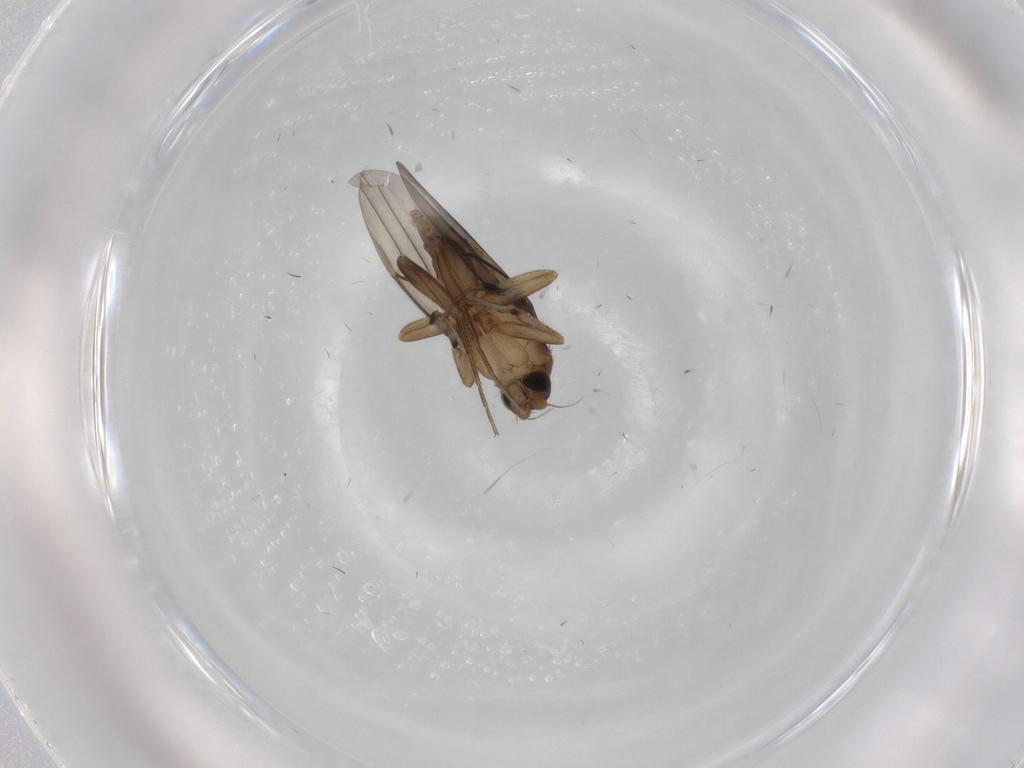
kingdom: Animalia
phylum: Arthropoda
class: Insecta
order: Diptera
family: Phoridae
